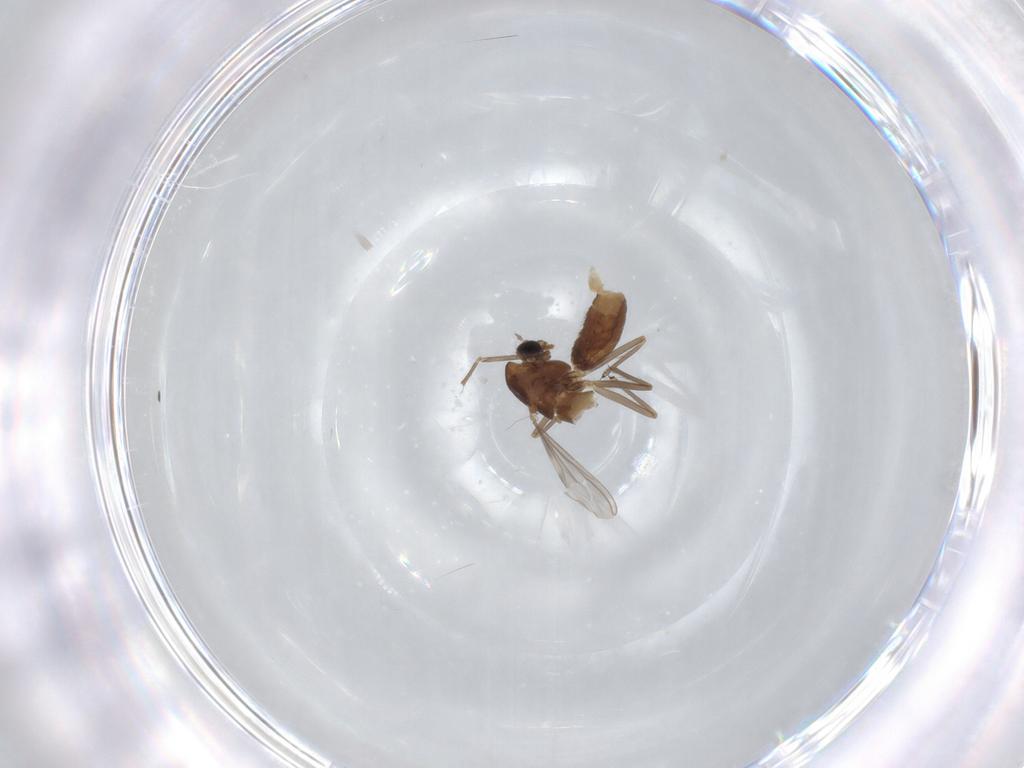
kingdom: Animalia
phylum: Arthropoda
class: Insecta
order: Diptera
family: Chironomidae
